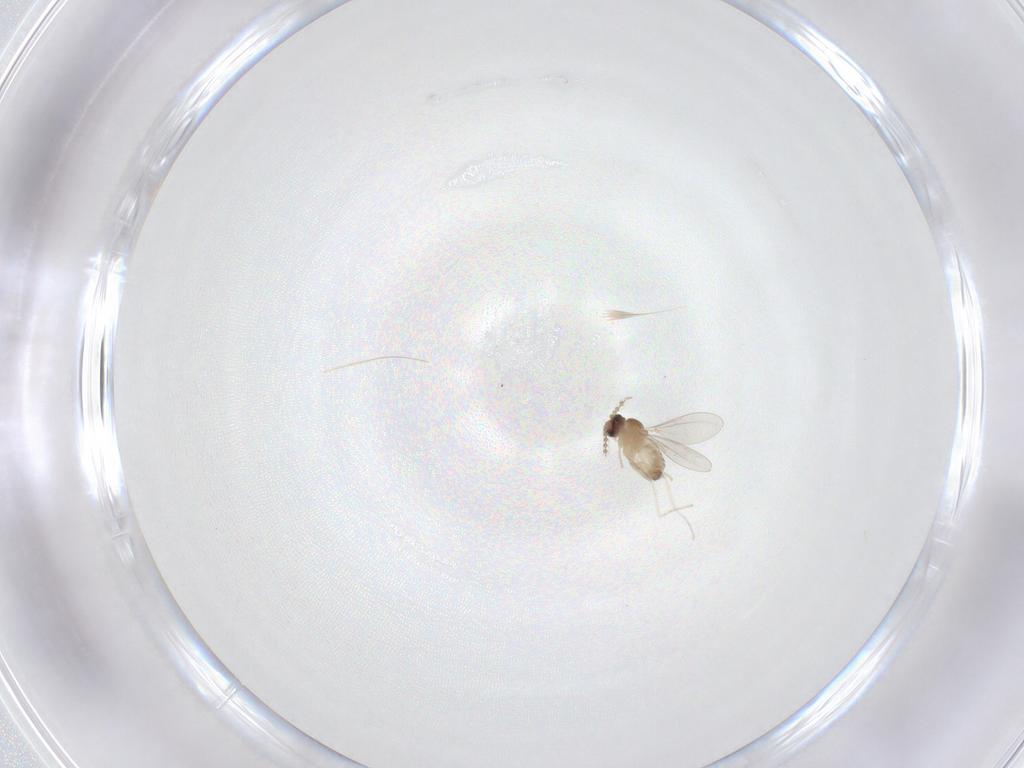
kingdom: Animalia
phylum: Arthropoda
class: Insecta
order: Diptera
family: Cecidomyiidae
